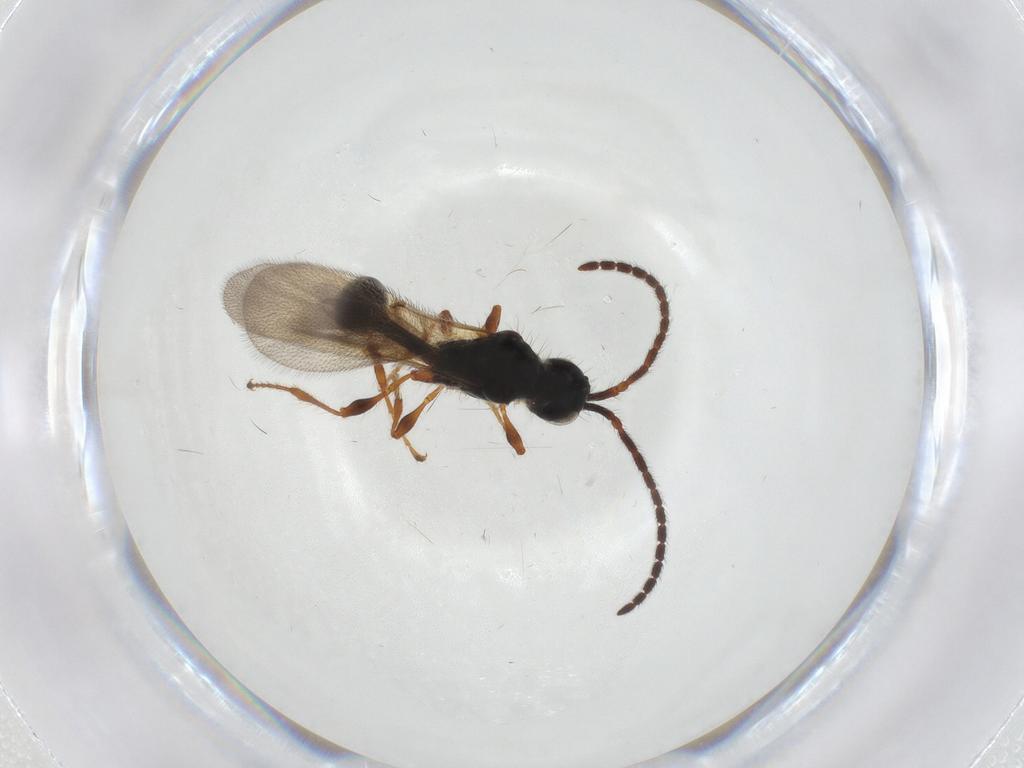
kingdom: Animalia
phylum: Arthropoda
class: Insecta
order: Hymenoptera
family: Diapriidae
